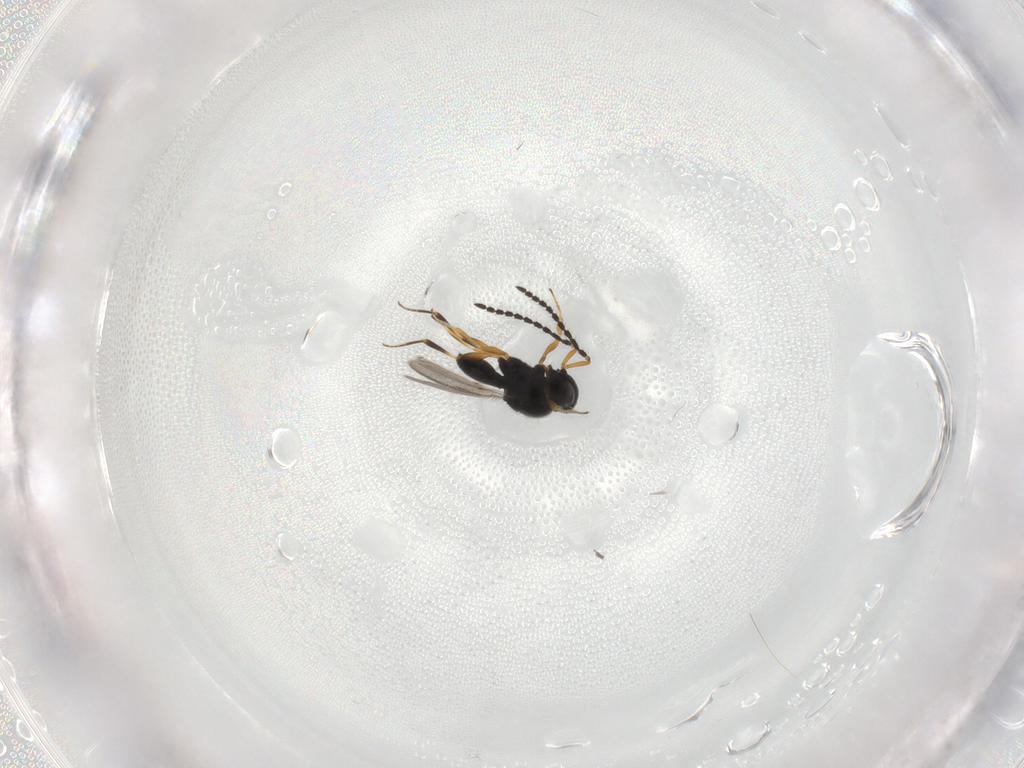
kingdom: Animalia
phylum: Arthropoda
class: Insecta
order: Hymenoptera
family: Scelionidae
